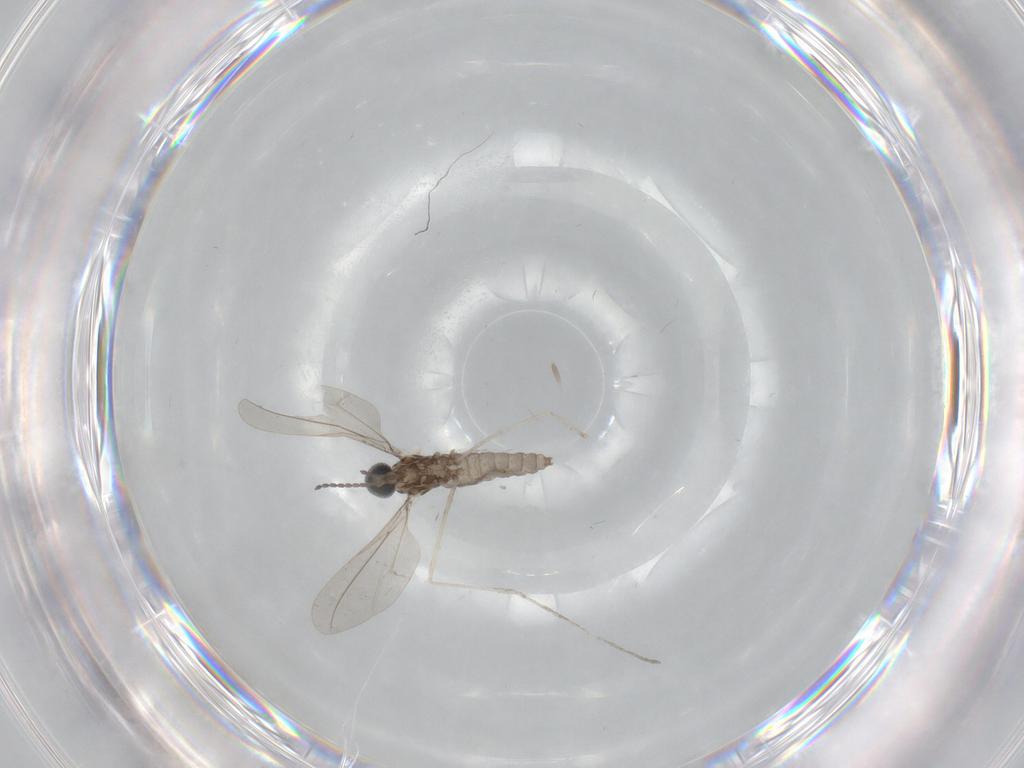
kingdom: Animalia
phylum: Arthropoda
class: Insecta
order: Diptera
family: Cecidomyiidae
